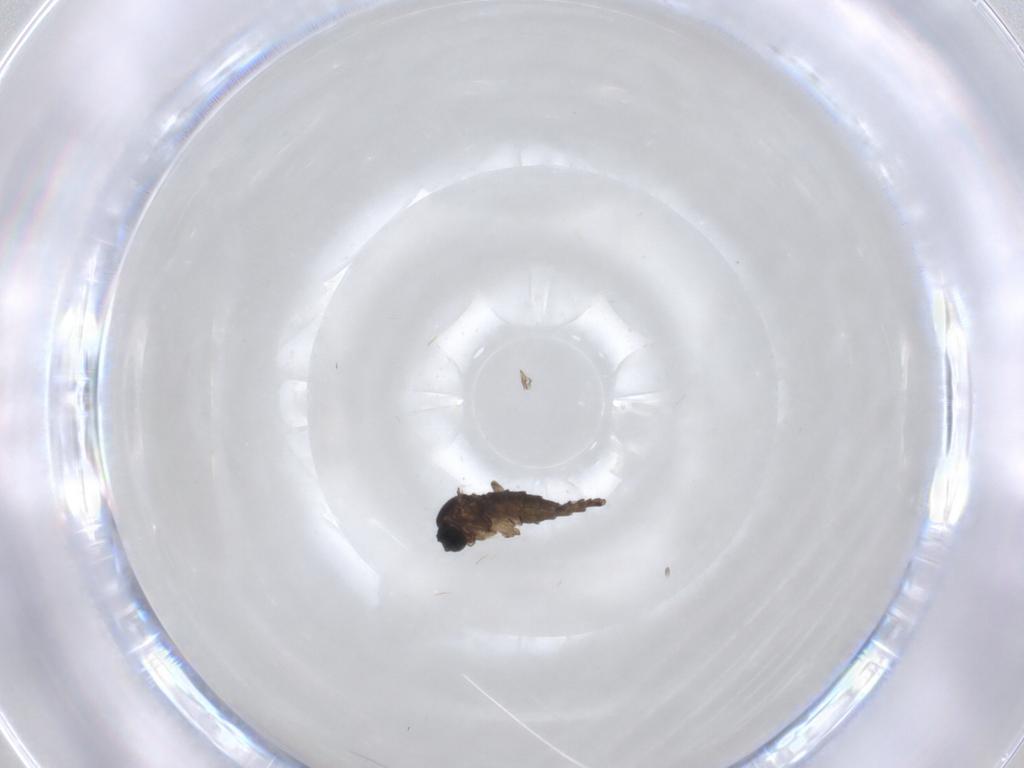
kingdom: Animalia
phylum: Arthropoda
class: Insecta
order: Diptera
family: Sciaridae
